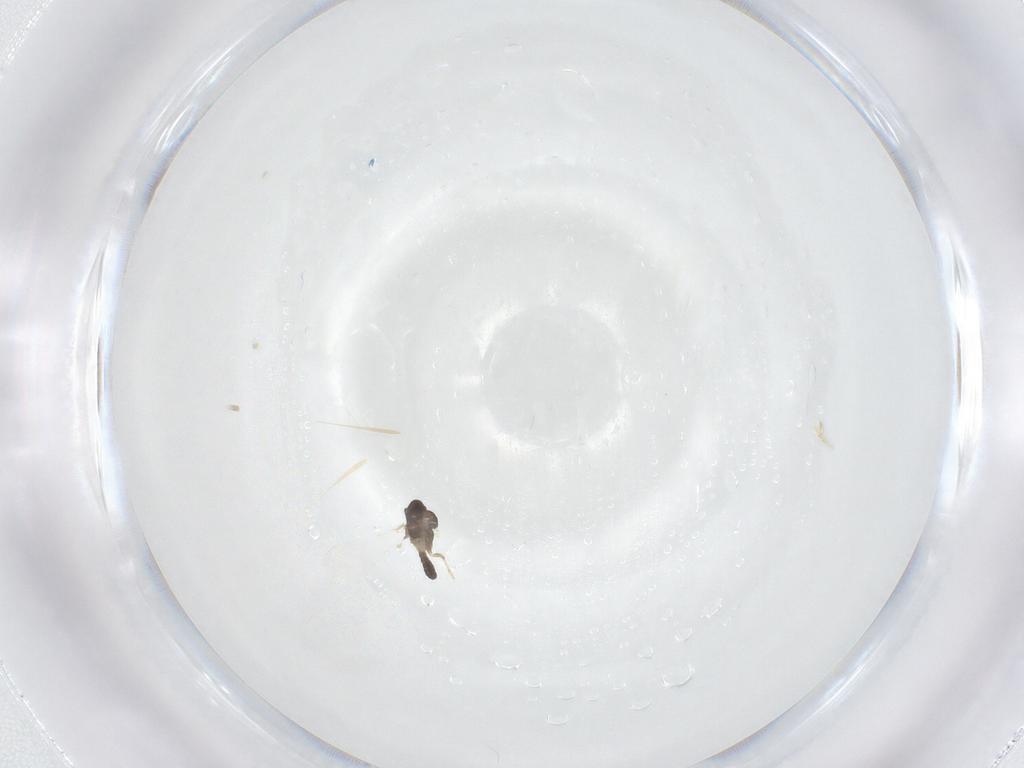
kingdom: Animalia
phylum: Arthropoda
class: Insecta
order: Diptera
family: Chironomidae
